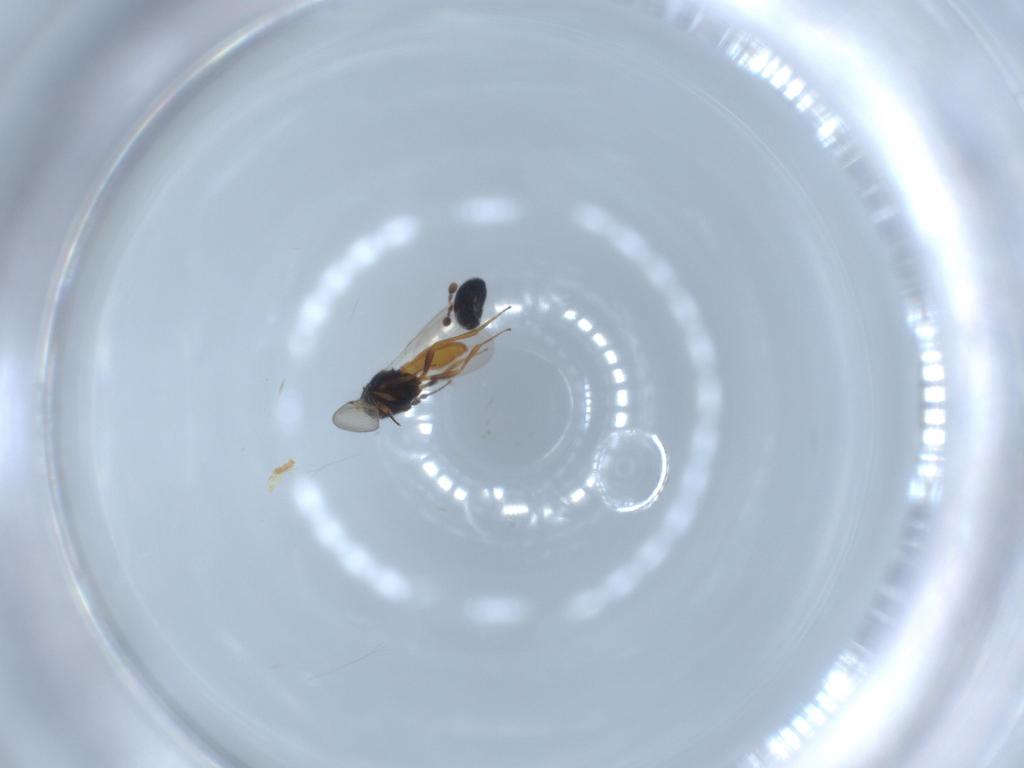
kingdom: Animalia
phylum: Arthropoda
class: Insecta
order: Hymenoptera
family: Scelionidae
